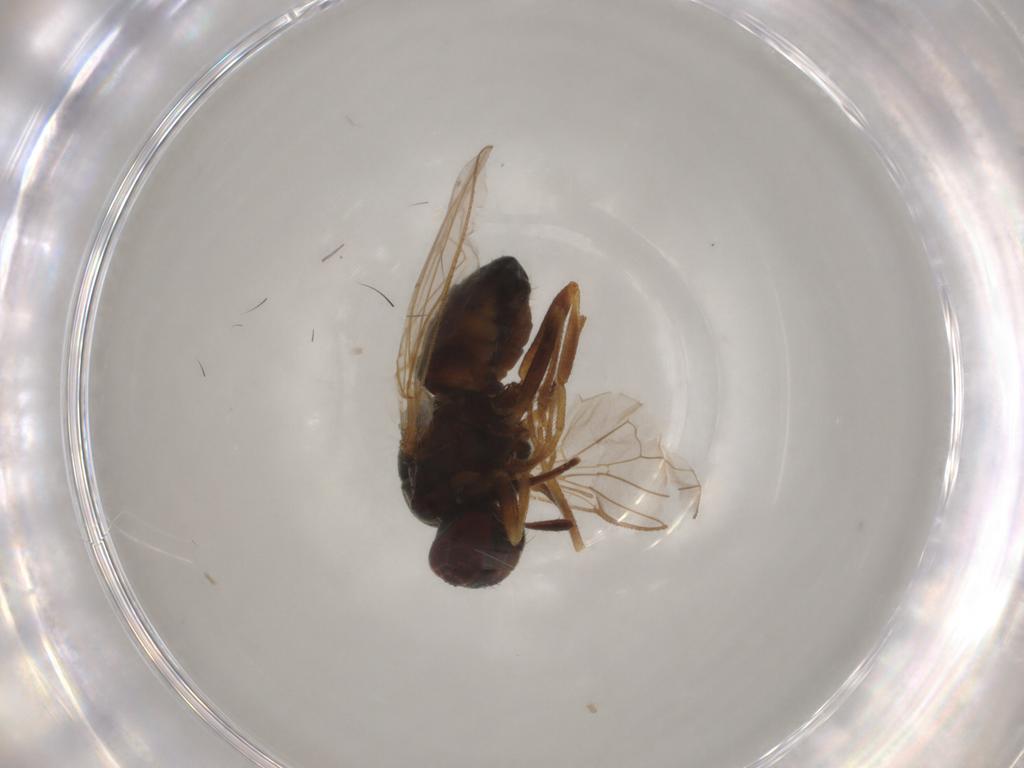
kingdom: Animalia
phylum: Arthropoda
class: Insecta
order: Diptera
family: Muscidae
